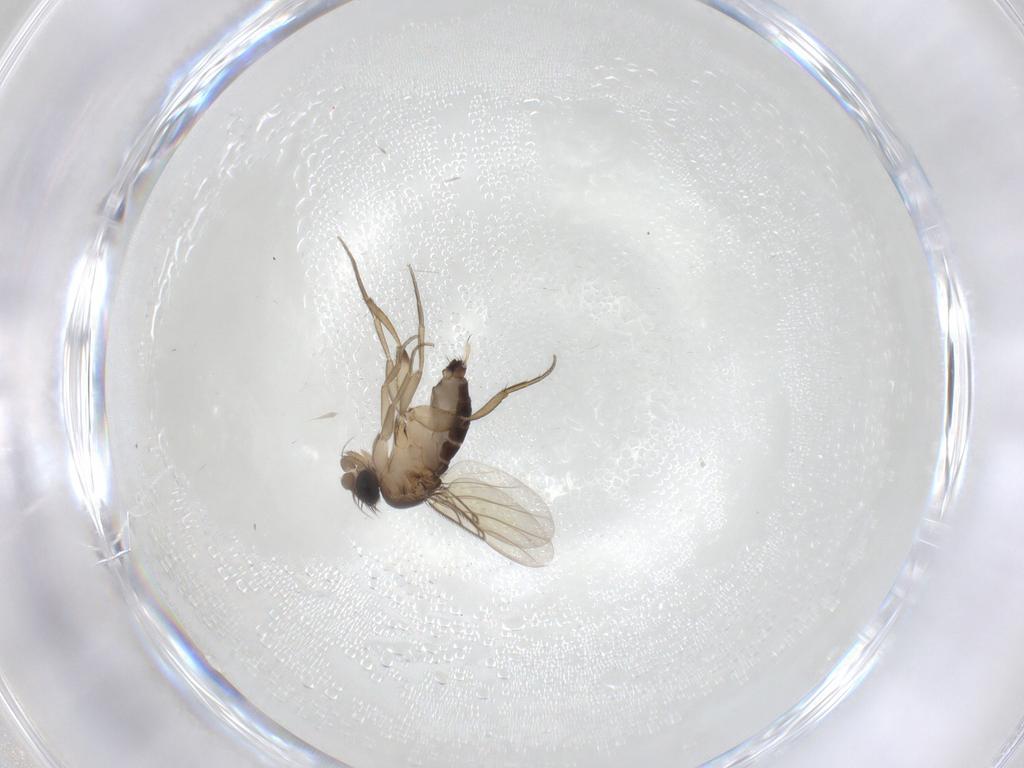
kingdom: Animalia
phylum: Arthropoda
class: Insecta
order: Diptera
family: Phoridae
